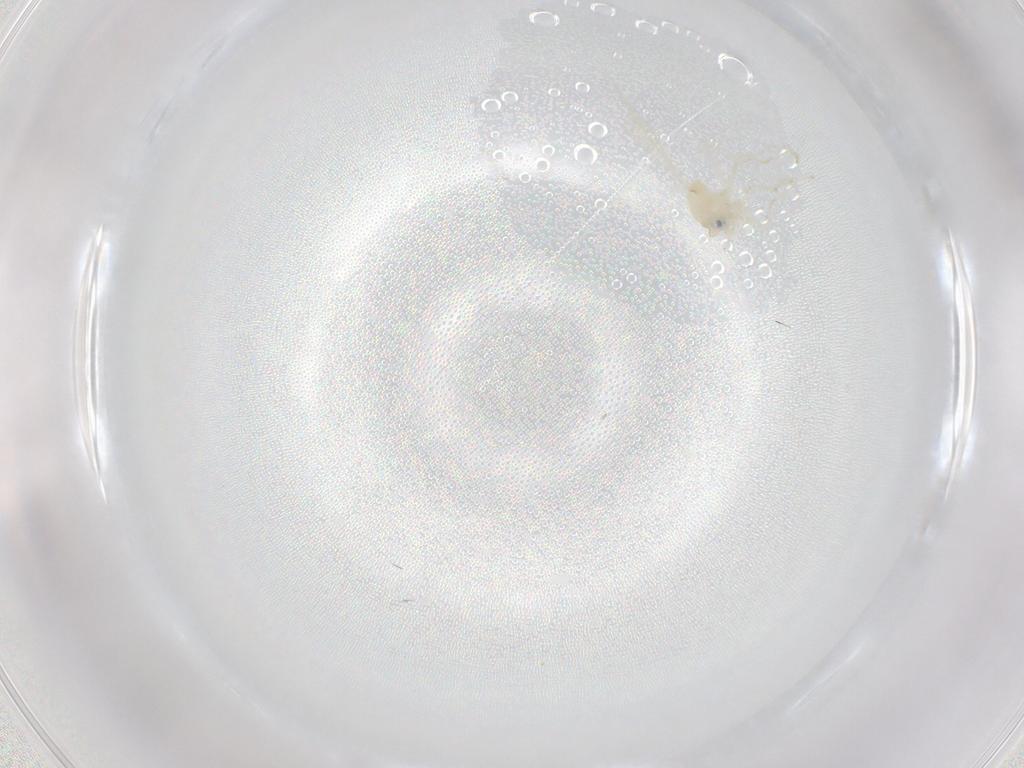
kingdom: Animalia
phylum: Arthropoda
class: Insecta
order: Diptera
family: Cecidomyiidae
